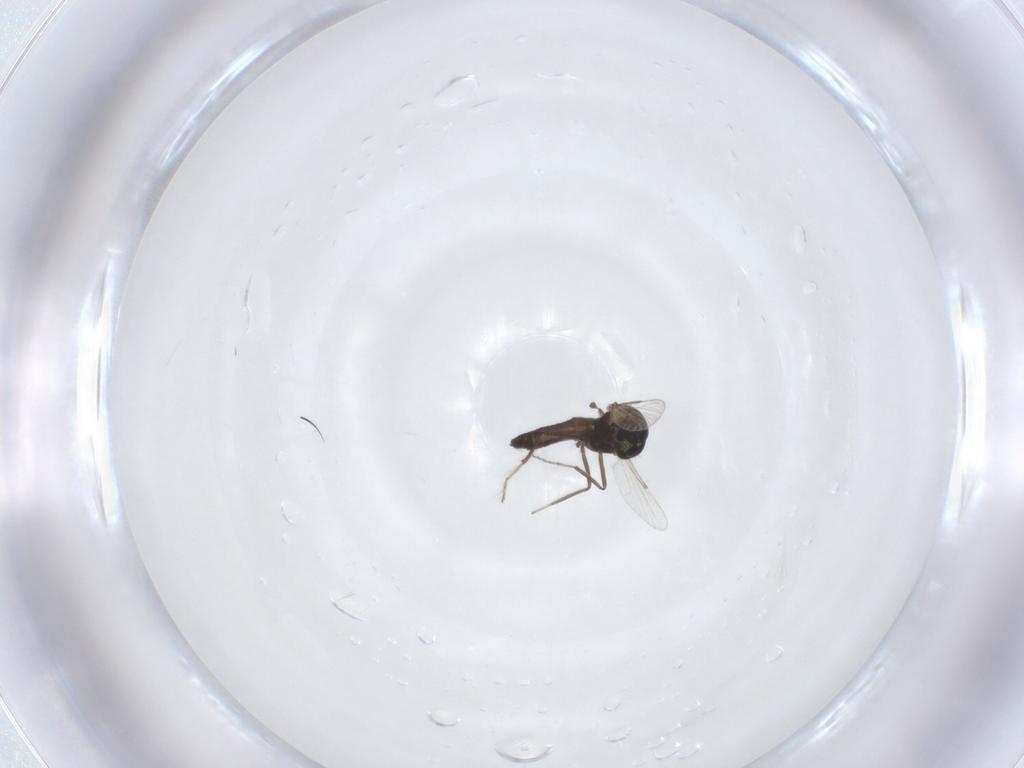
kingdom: Animalia
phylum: Arthropoda
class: Insecta
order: Diptera
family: Ceratopogonidae
